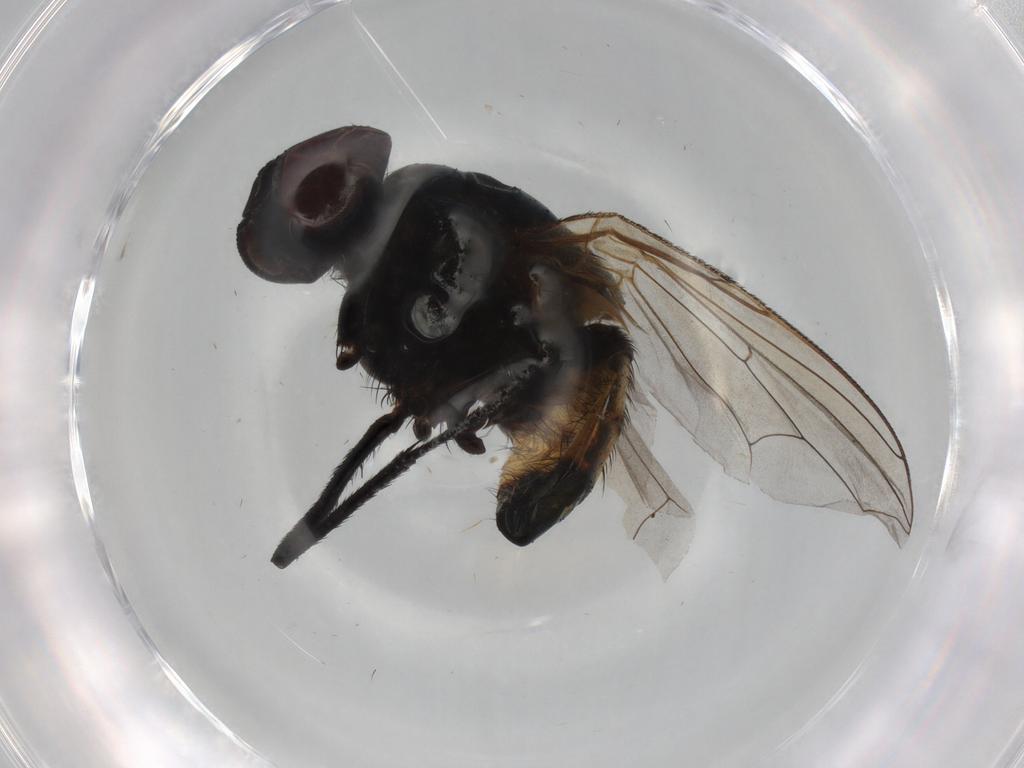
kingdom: Animalia
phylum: Arthropoda
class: Insecta
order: Diptera
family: Muscidae
